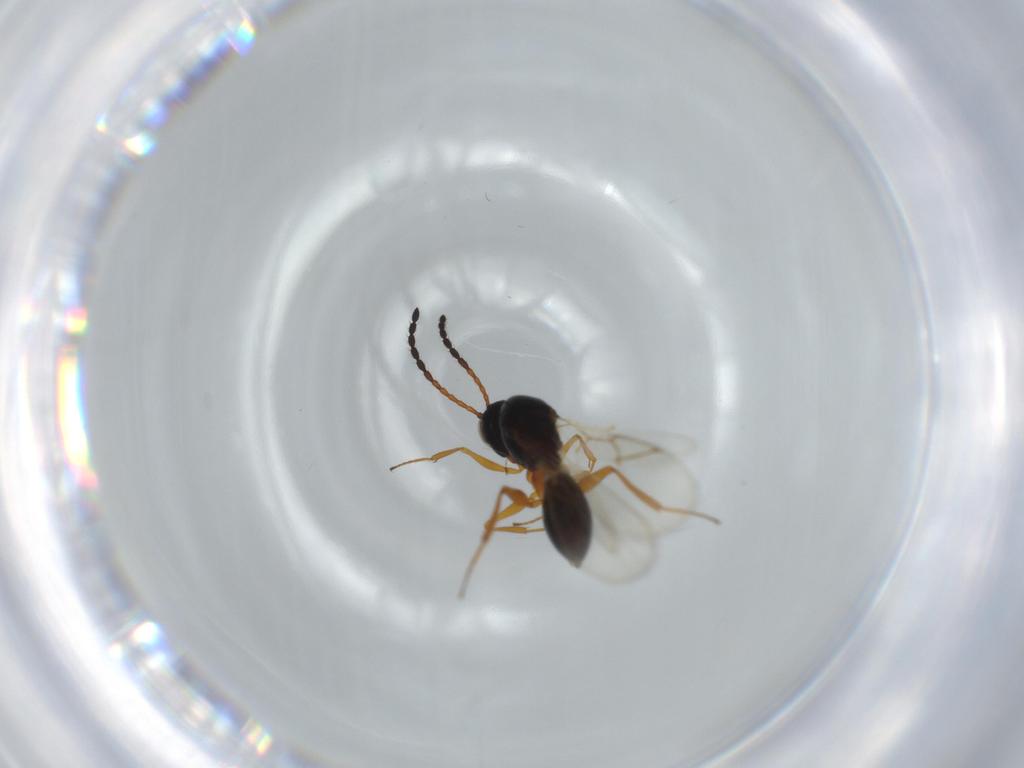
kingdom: Animalia
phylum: Arthropoda
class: Insecta
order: Hymenoptera
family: Figitidae
